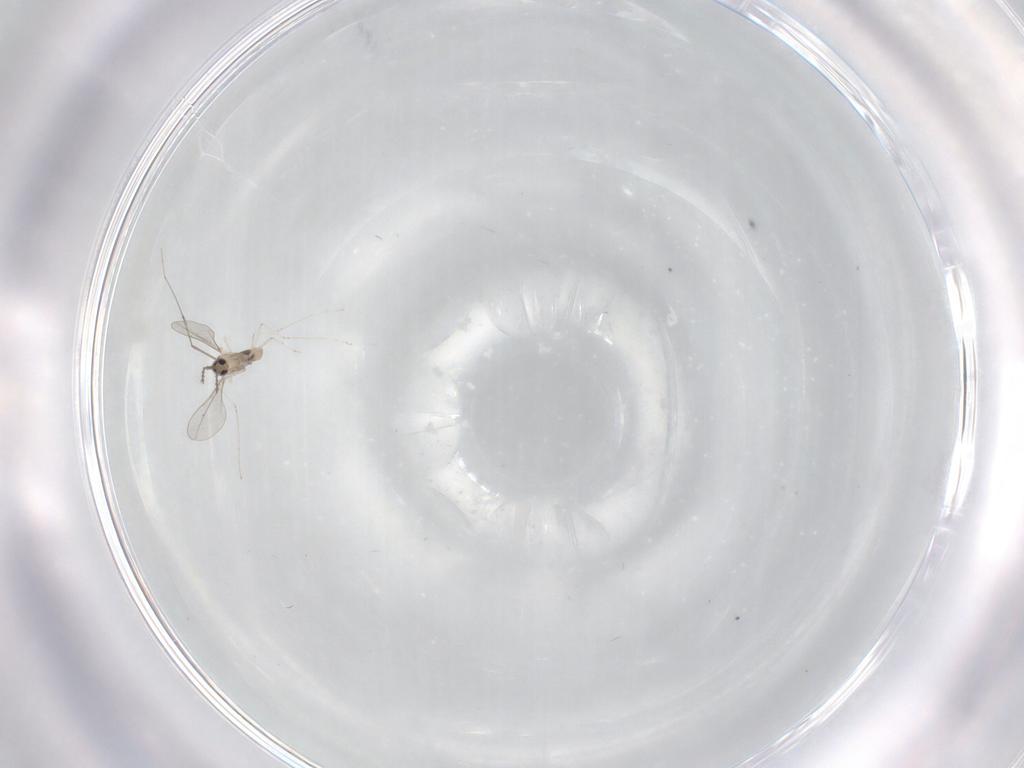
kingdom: Animalia
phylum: Arthropoda
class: Insecta
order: Diptera
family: Cecidomyiidae
